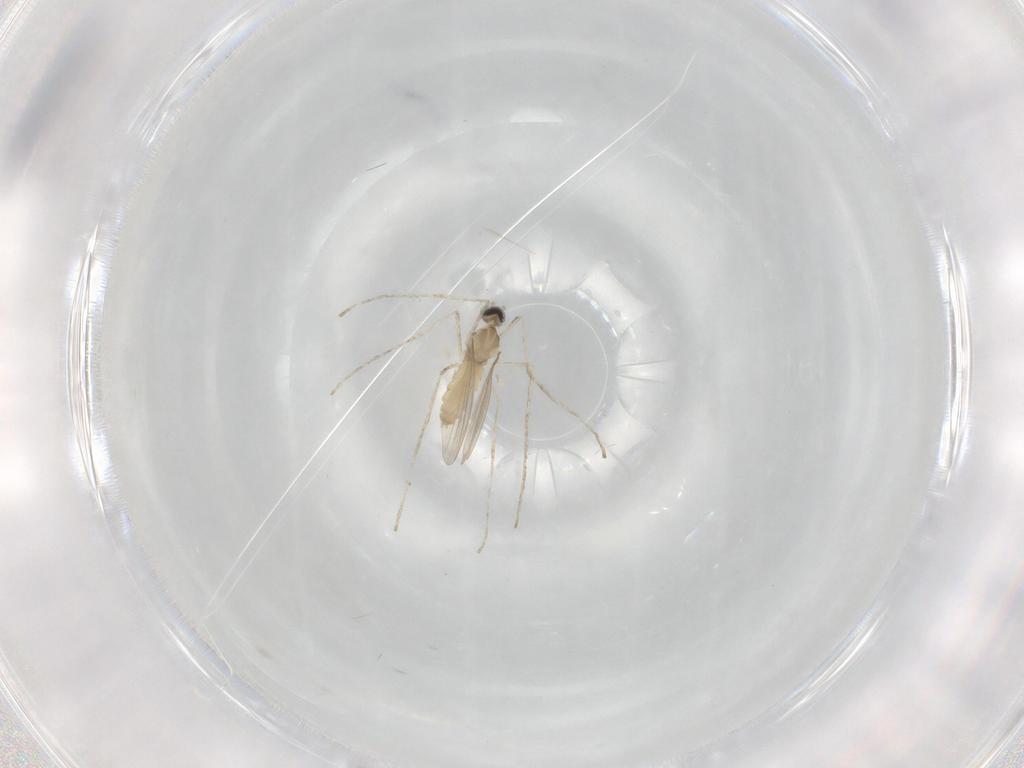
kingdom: Animalia
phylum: Arthropoda
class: Insecta
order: Diptera
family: Cecidomyiidae
